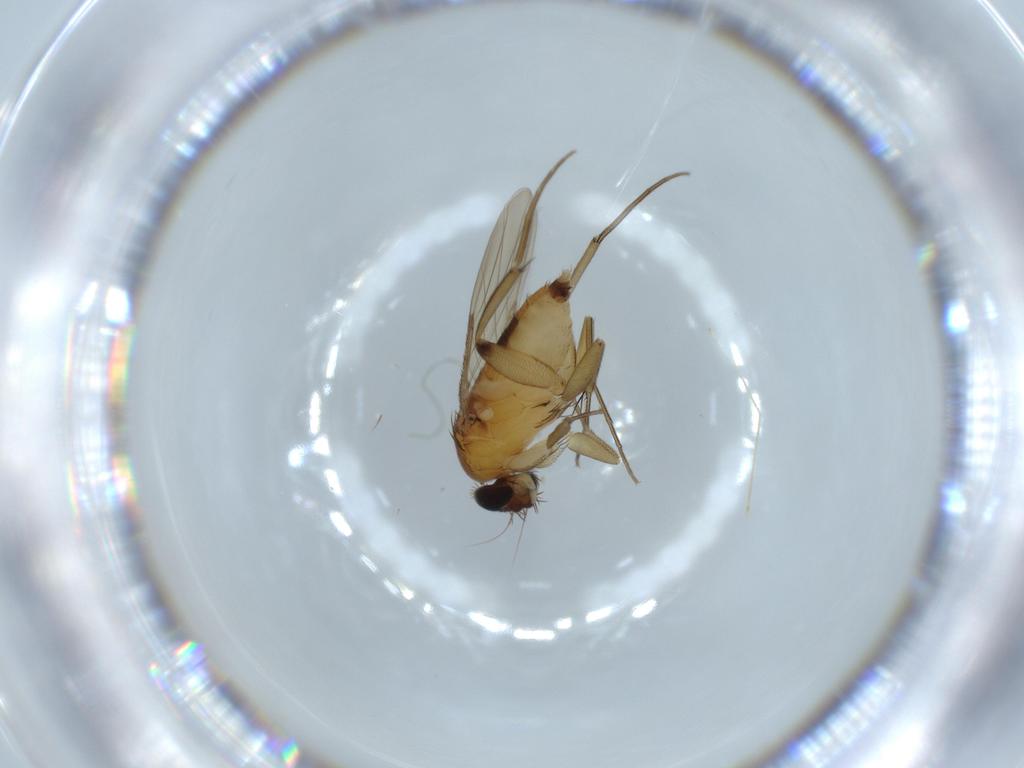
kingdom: Animalia
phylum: Arthropoda
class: Insecta
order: Diptera
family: Phoridae
